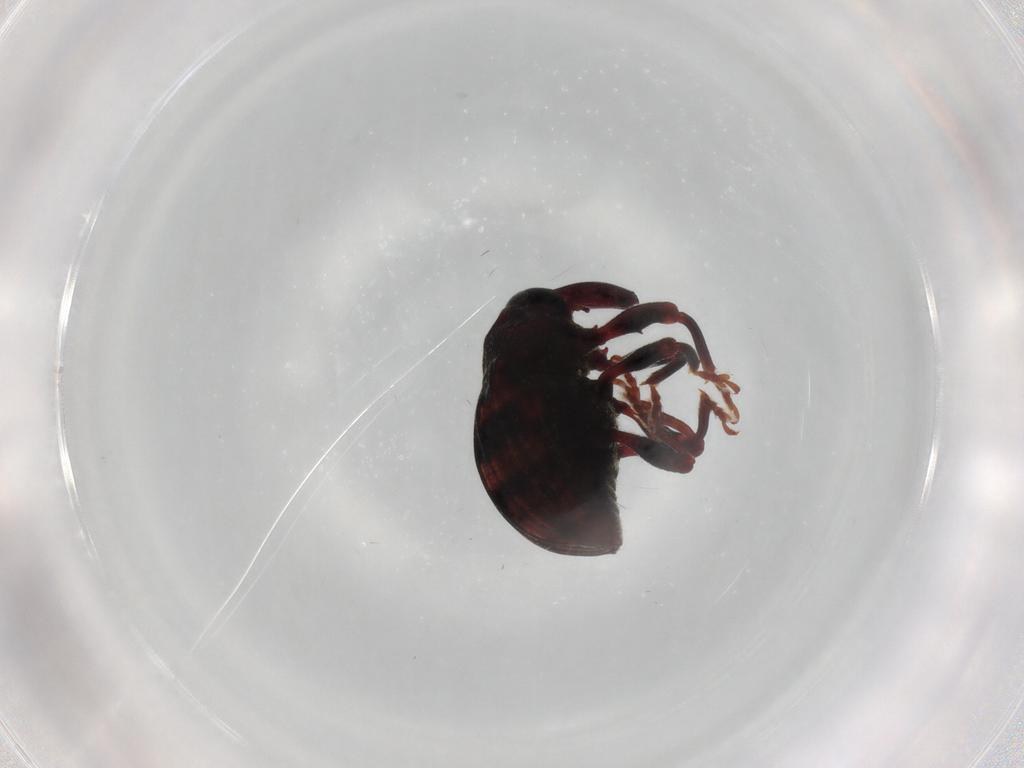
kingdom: Animalia
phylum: Arthropoda
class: Insecta
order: Coleoptera
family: Curculionidae
